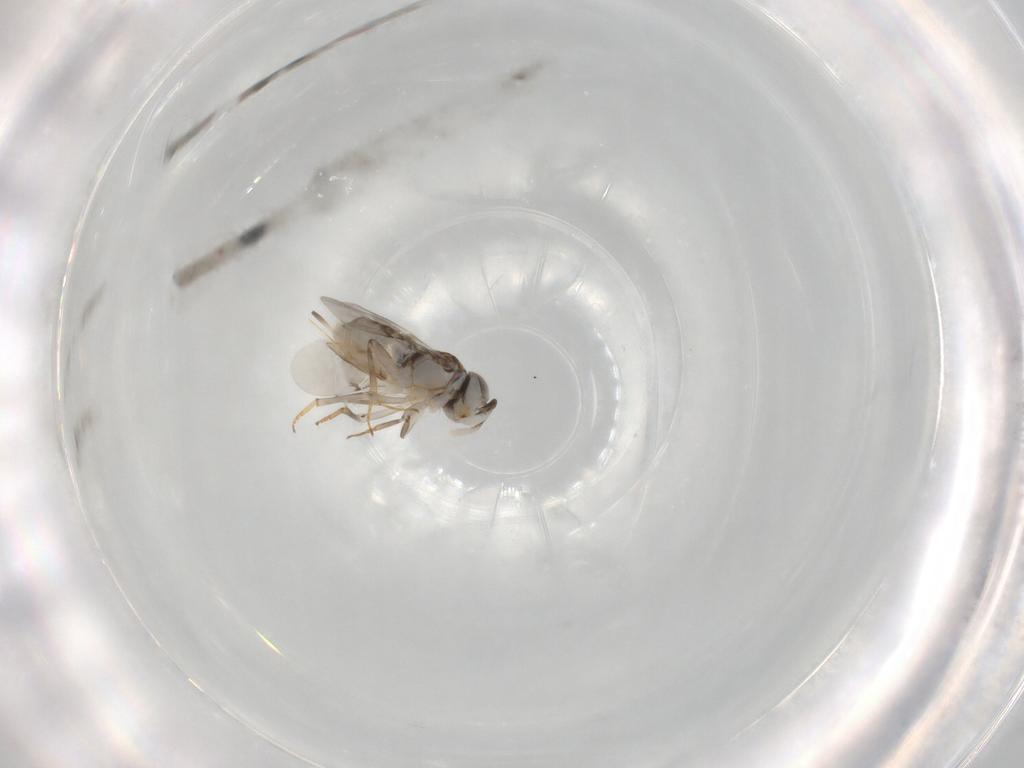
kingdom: Animalia
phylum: Arthropoda
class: Insecta
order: Hymenoptera
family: Encyrtidae
